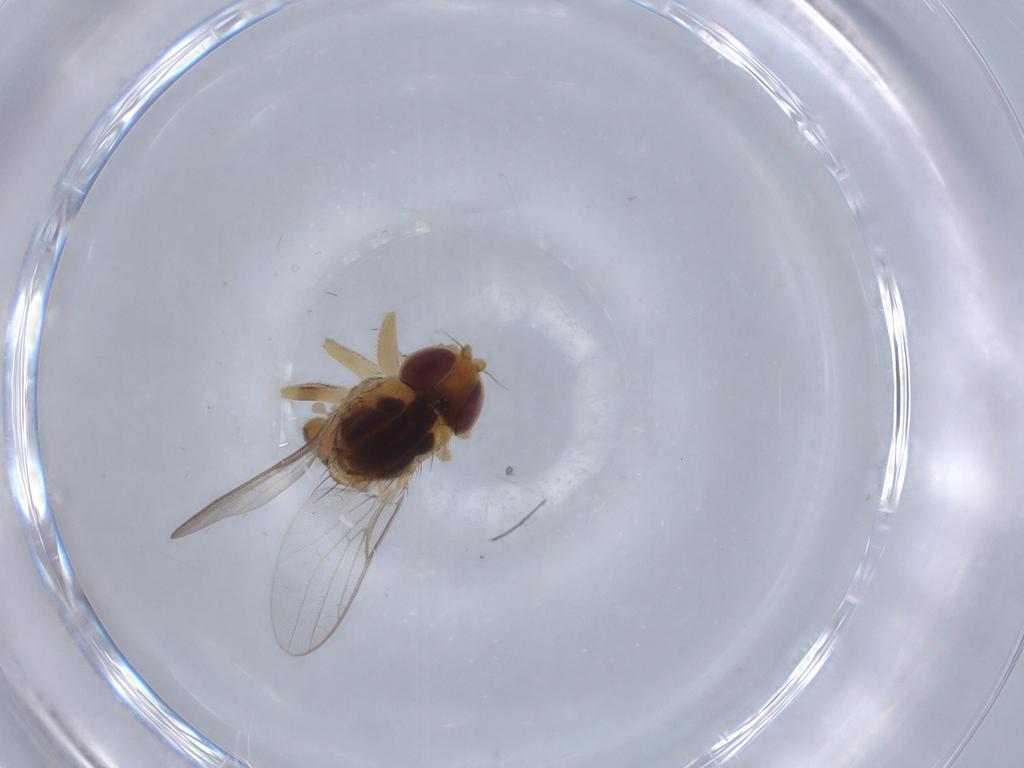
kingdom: Animalia
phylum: Arthropoda
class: Insecta
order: Diptera
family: Chloropidae
